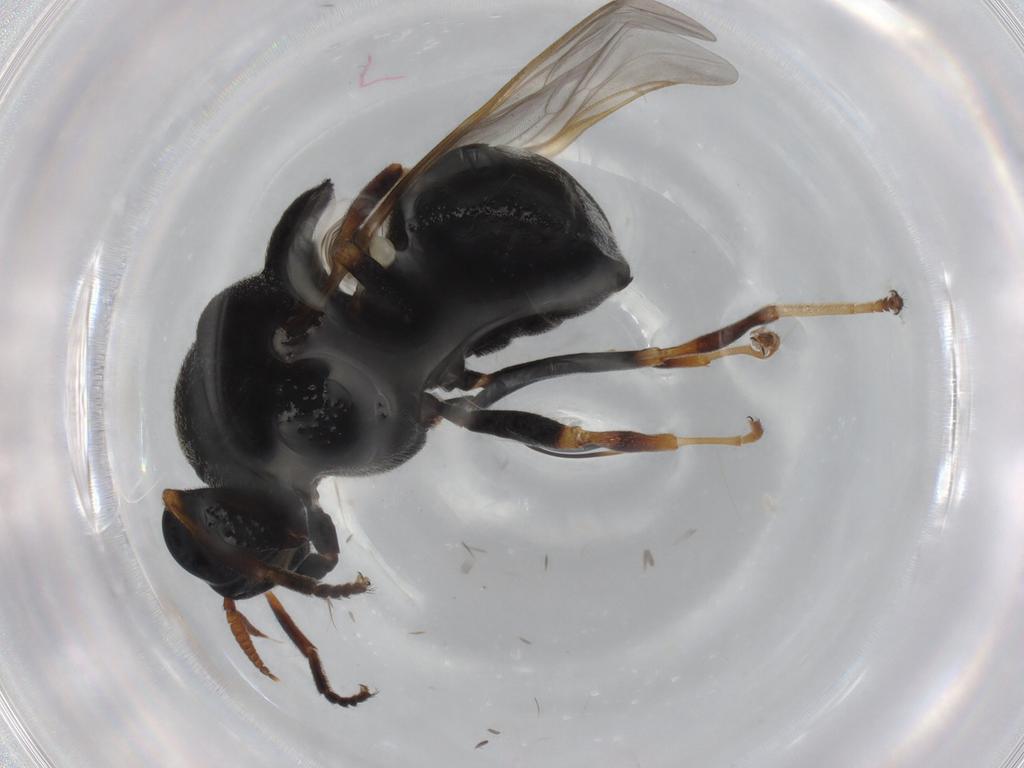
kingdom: Animalia
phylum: Arthropoda
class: Insecta
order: Diptera
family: Stratiomyidae
